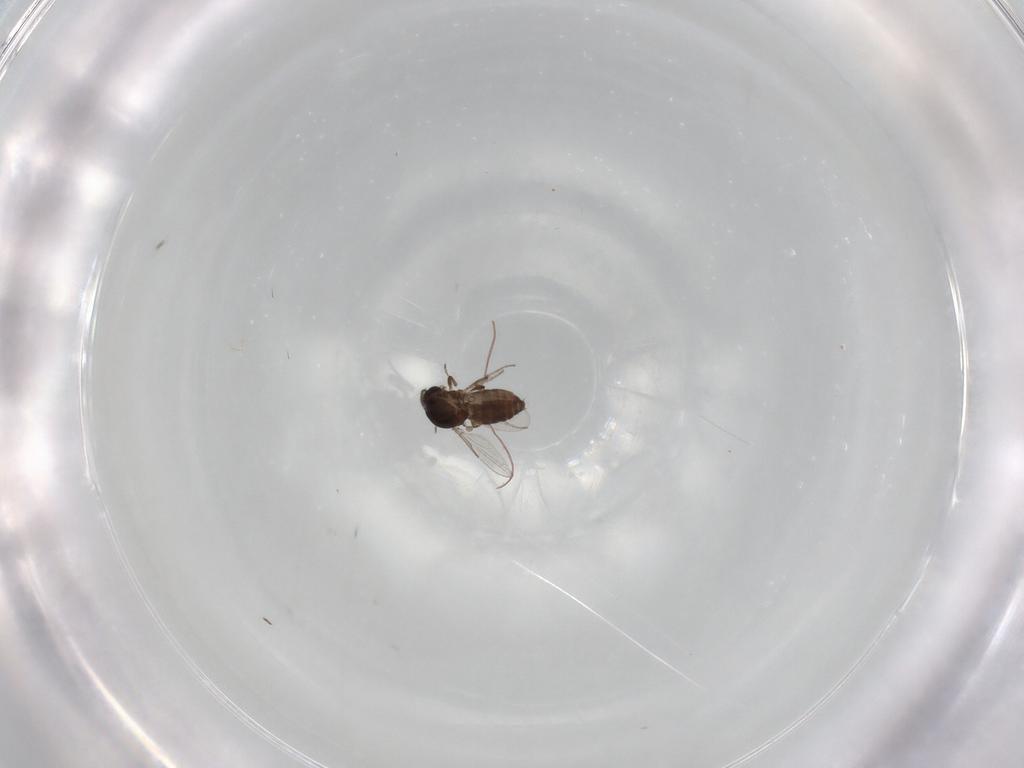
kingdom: Animalia
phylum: Arthropoda
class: Insecta
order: Diptera
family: Ceratopogonidae
